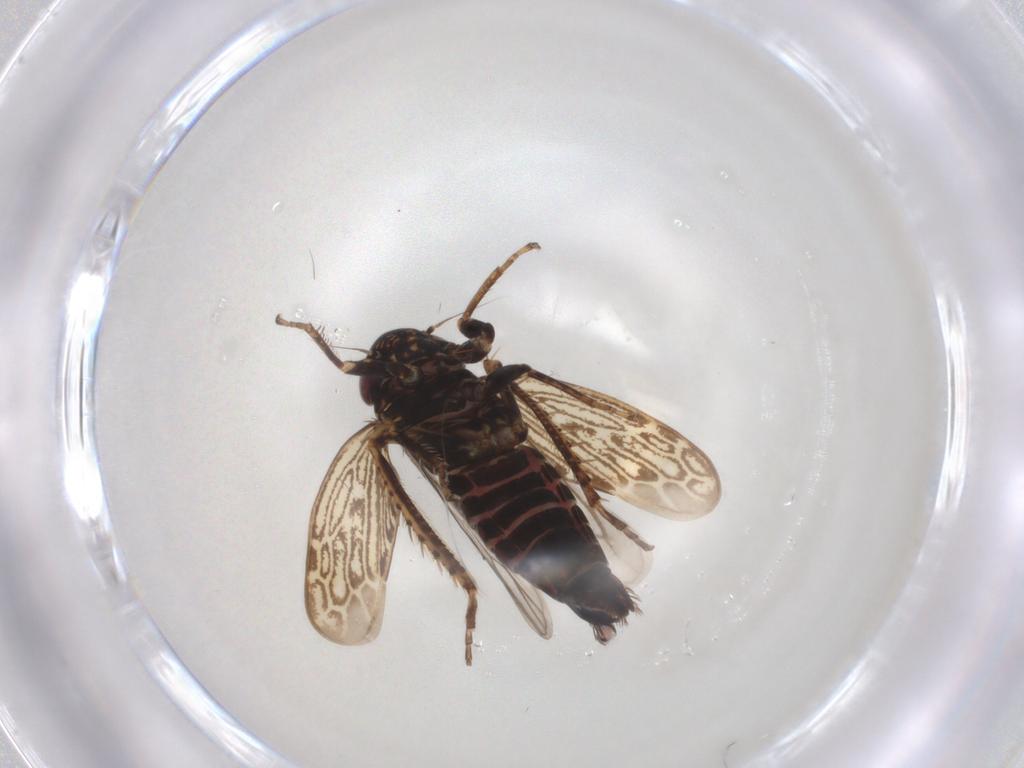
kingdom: Animalia
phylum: Arthropoda
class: Insecta
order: Hemiptera
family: Cicadellidae
